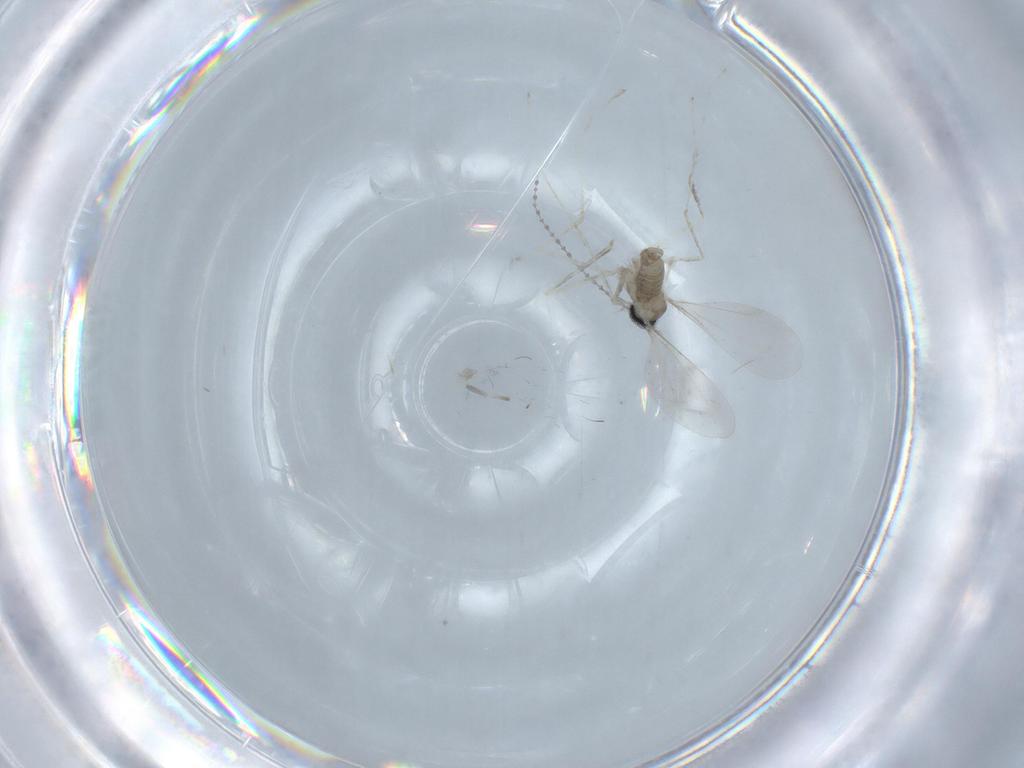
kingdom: Animalia
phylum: Arthropoda
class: Insecta
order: Diptera
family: Cecidomyiidae
